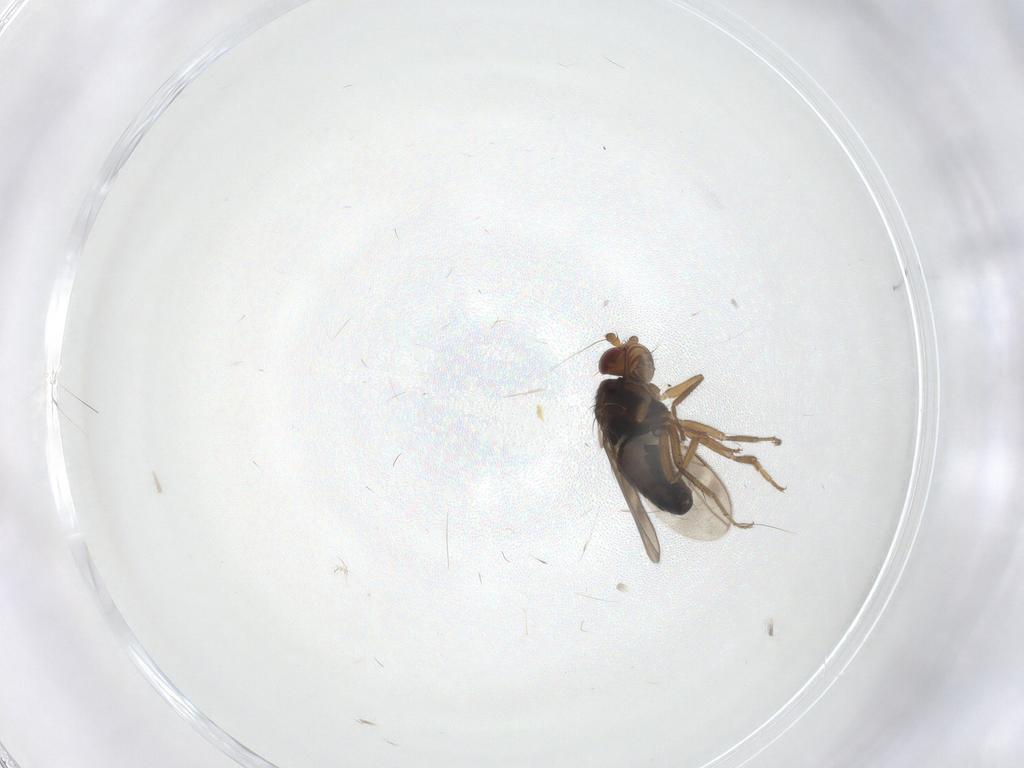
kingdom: Animalia
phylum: Arthropoda
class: Insecta
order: Diptera
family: Sphaeroceridae
